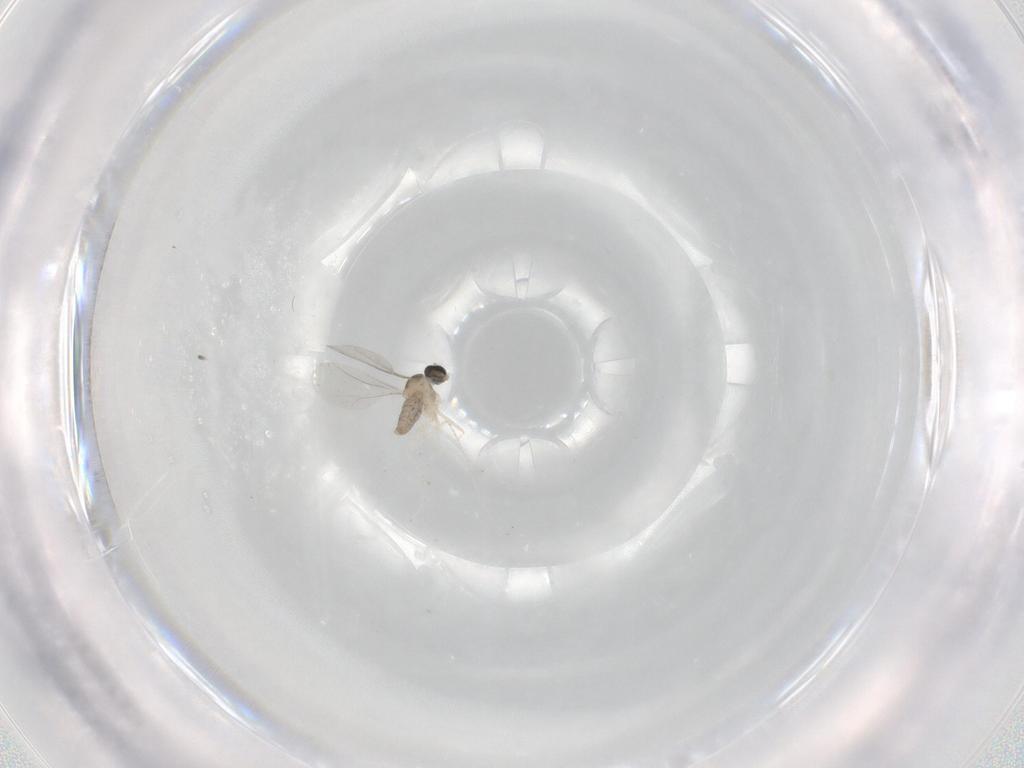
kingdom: Animalia
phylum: Arthropoda
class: Insecta
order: Diptera
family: Cecidomyiidae
